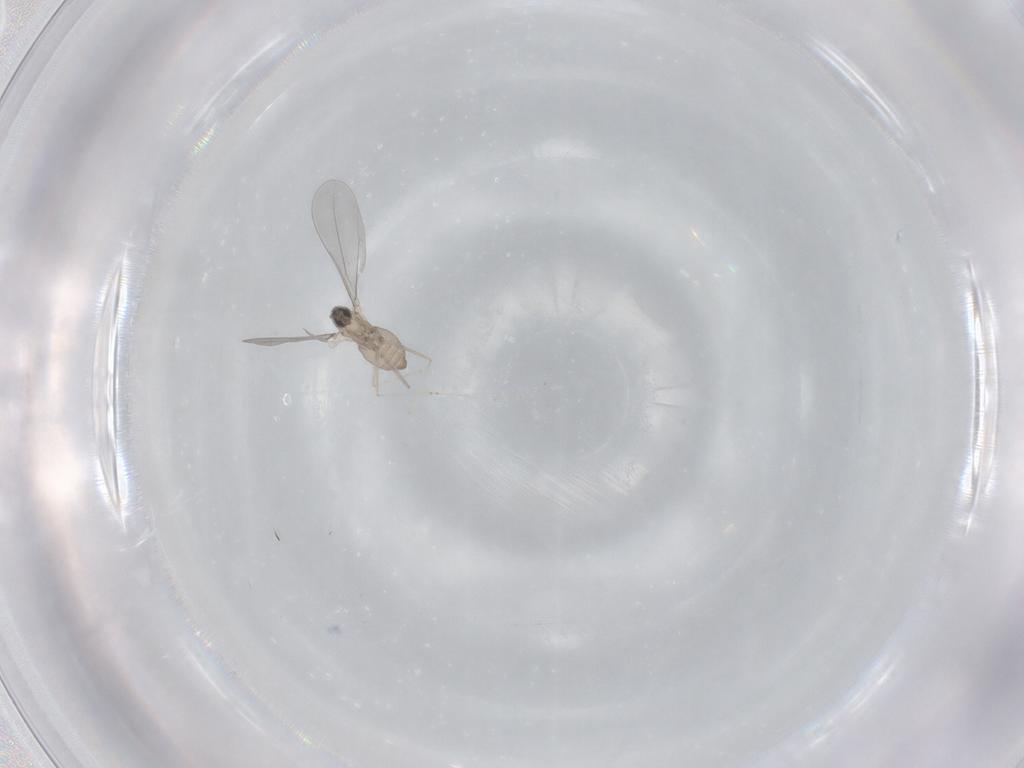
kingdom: Animalia
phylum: Arthropoda
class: Insecta
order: Diptera
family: Cecidomyiidae
